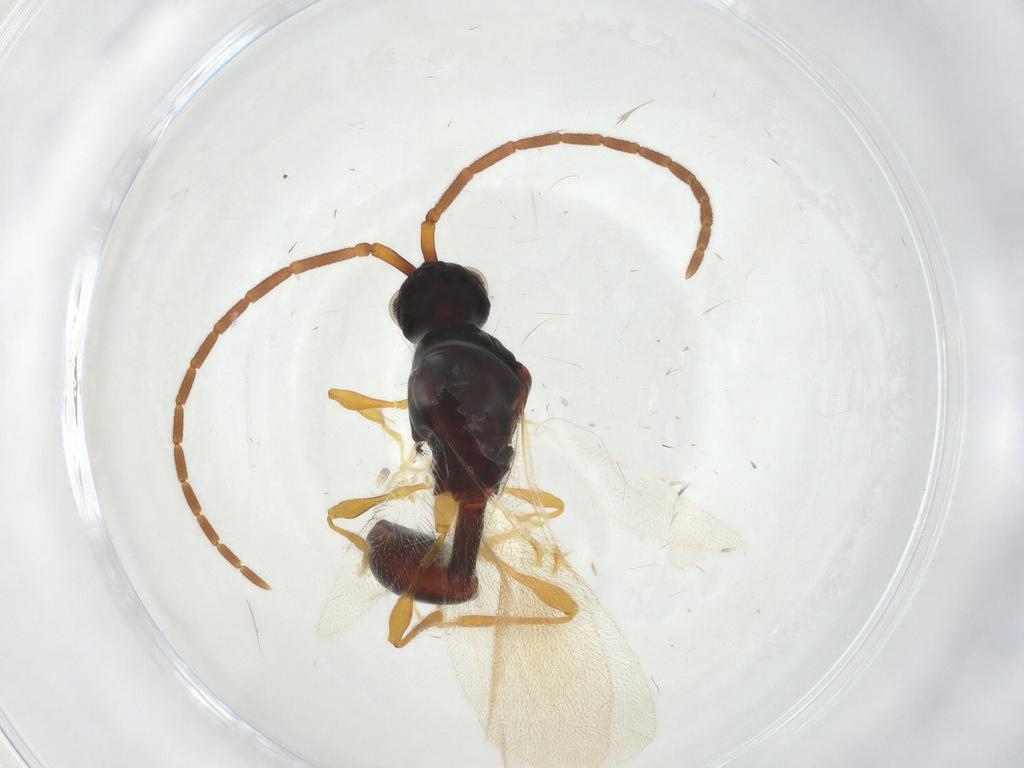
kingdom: Animalia
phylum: Arthropoda
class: Insecta
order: Hymenoptera
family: Diapriidae
